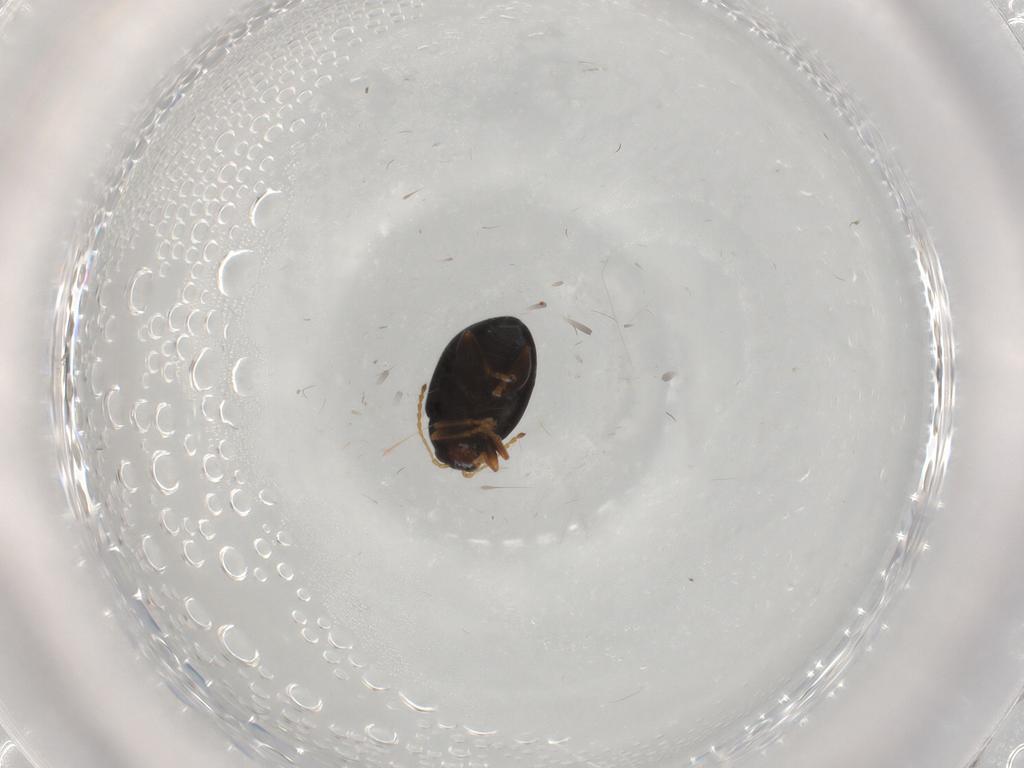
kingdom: Animalia
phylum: Arthropoda
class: Insecta
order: Coleoptera
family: Chrysomelidae
